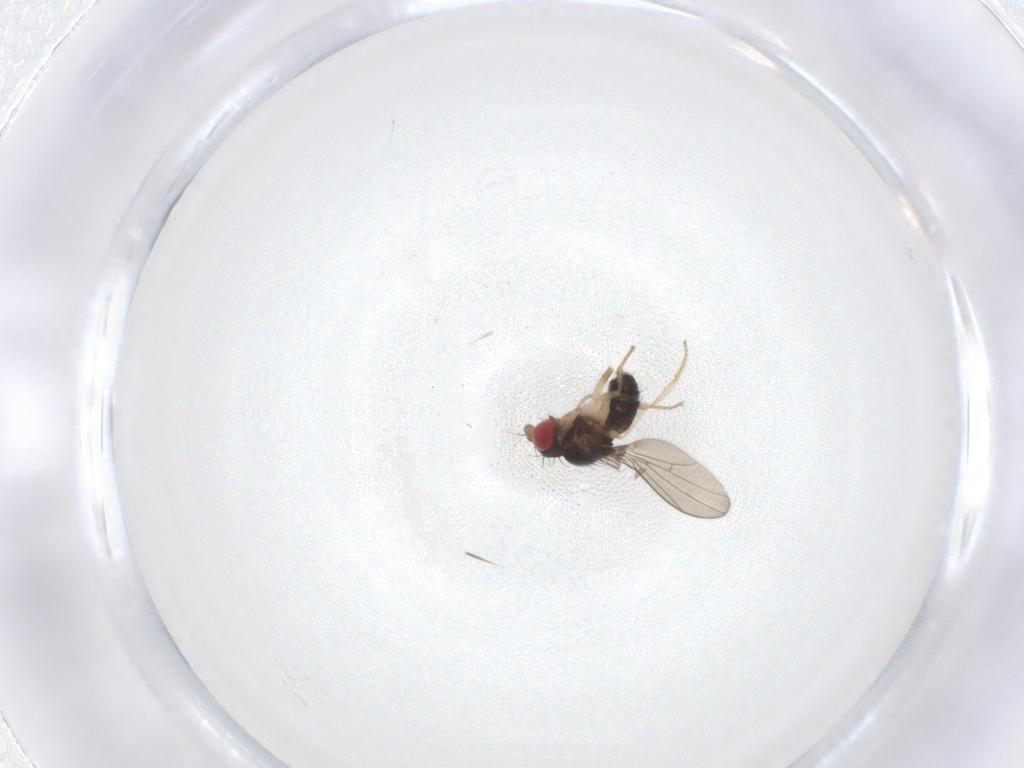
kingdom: Animalia
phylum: Arthropoda
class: Insecta
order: Diptera
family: Drosophilidae
